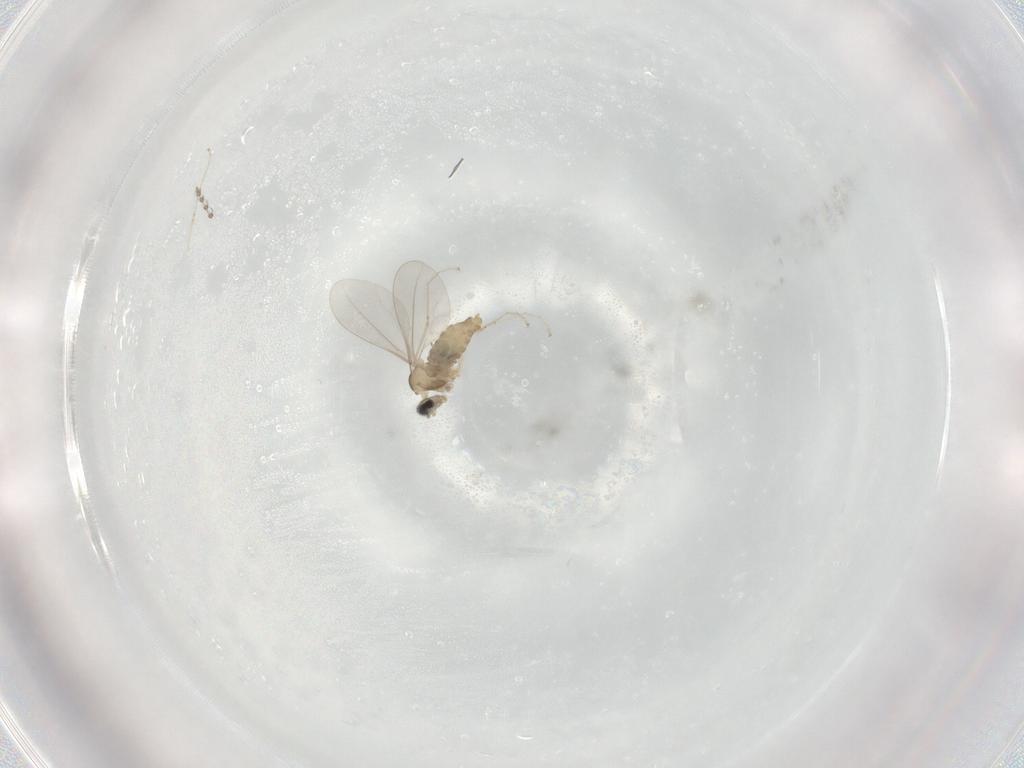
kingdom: Animalia
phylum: Arthropoda
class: Insecta
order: Diptera
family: Psychodidae
